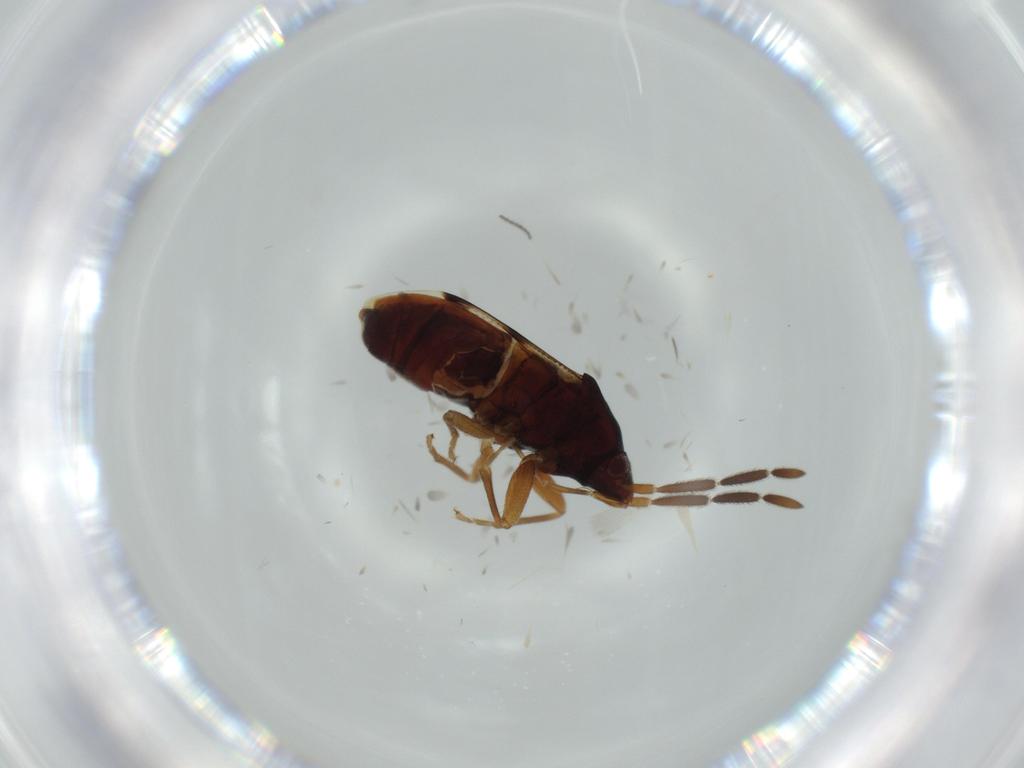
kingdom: Animalia
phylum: Arthropoda
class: Insecta
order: Hemiptera
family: Rhyparochromidae
